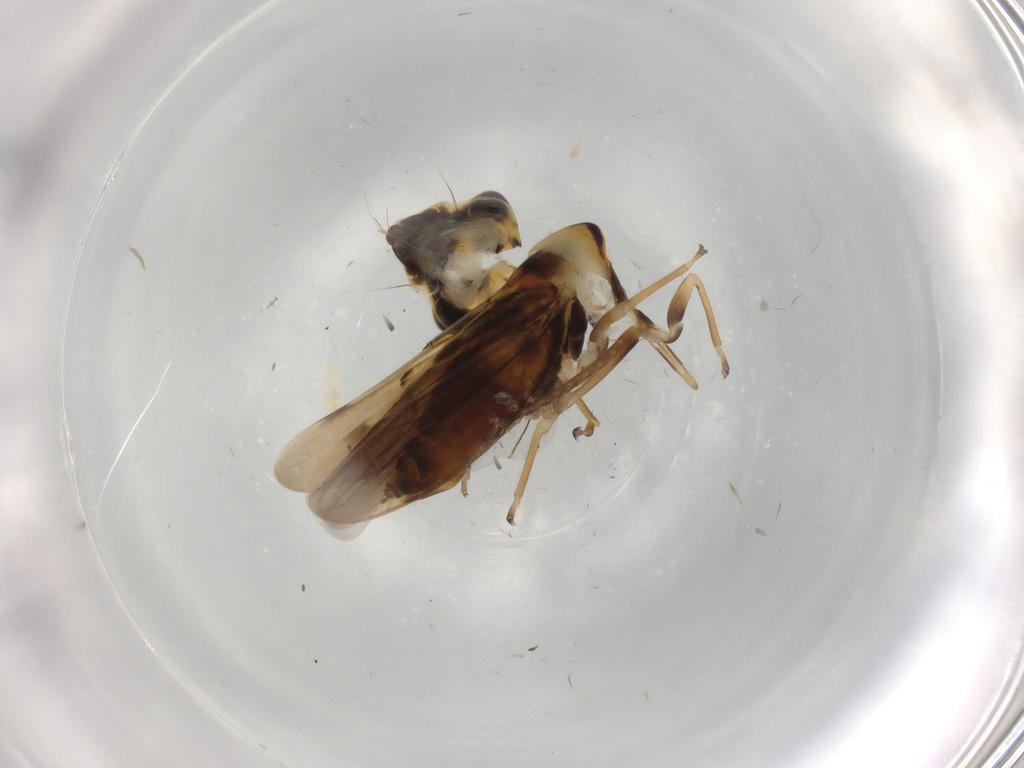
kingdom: Animalia
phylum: Arthropoda
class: Insecta
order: Hemiptera
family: Cicadellidae
